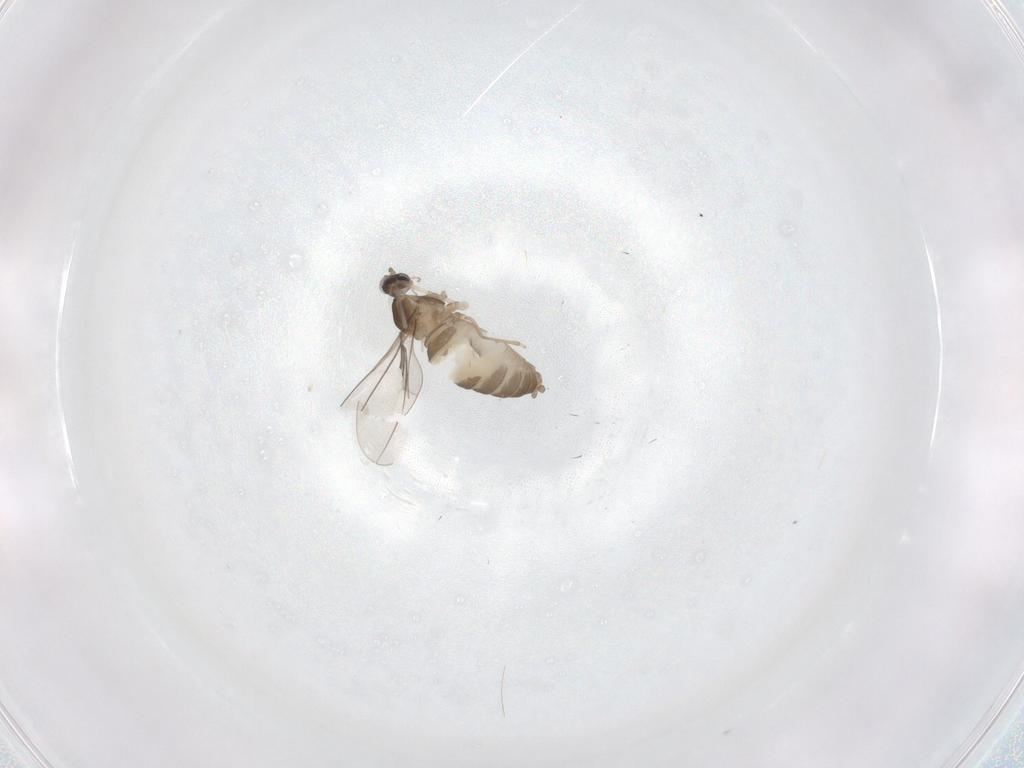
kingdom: Animalia
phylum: Arthropoda
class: Insecta
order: Diptera
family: Cecidomyiidae
